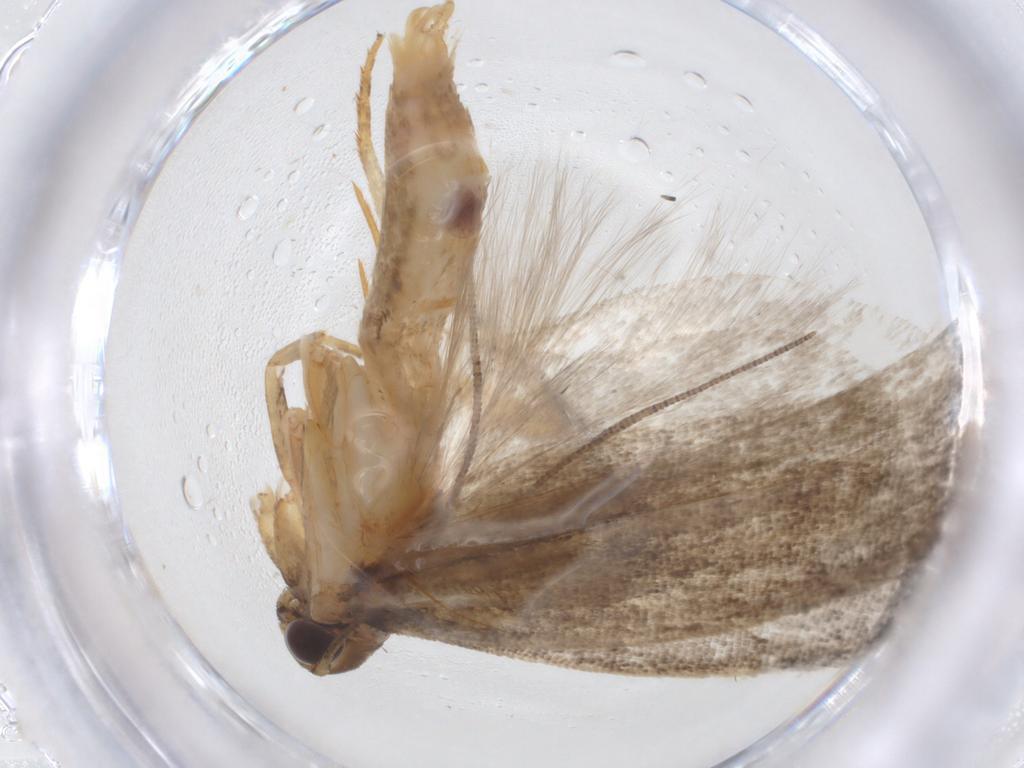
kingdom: Animalia
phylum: Arthropoda
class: Insecta
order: Lepidoptera
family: Gelechiidae
